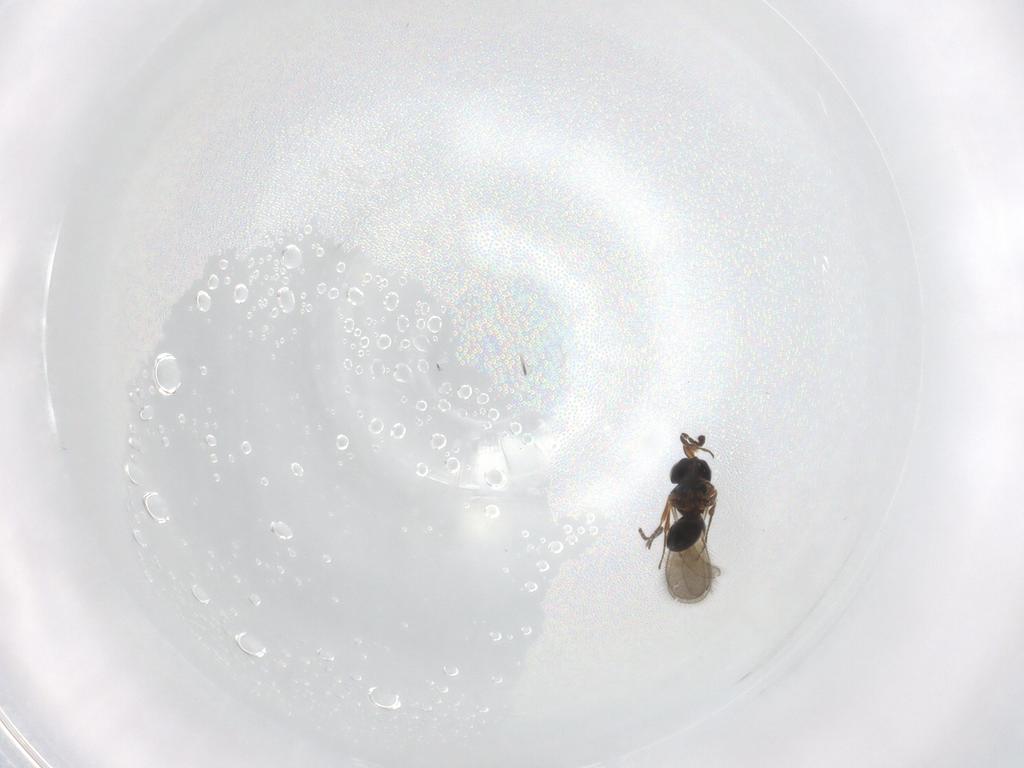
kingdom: Animalia
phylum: Arthropoda
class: Insecta
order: Hymenoptera
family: Scelionidae
